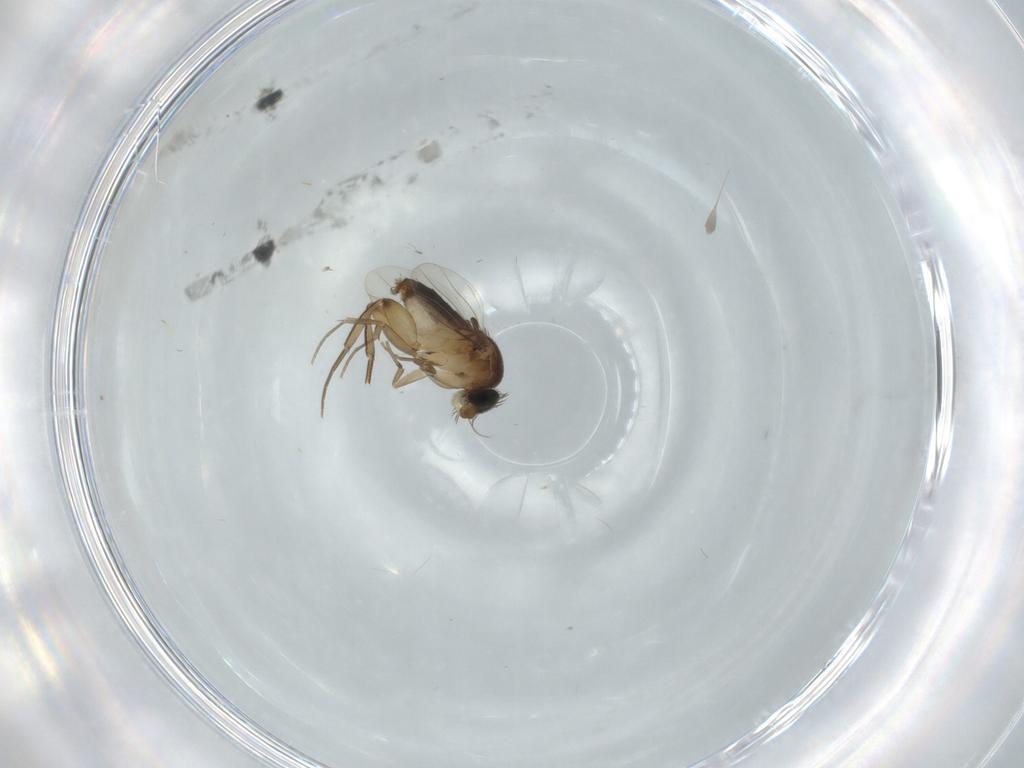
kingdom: Animalia
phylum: Arthropoda
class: Insecta
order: Diptera
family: Phoridae
